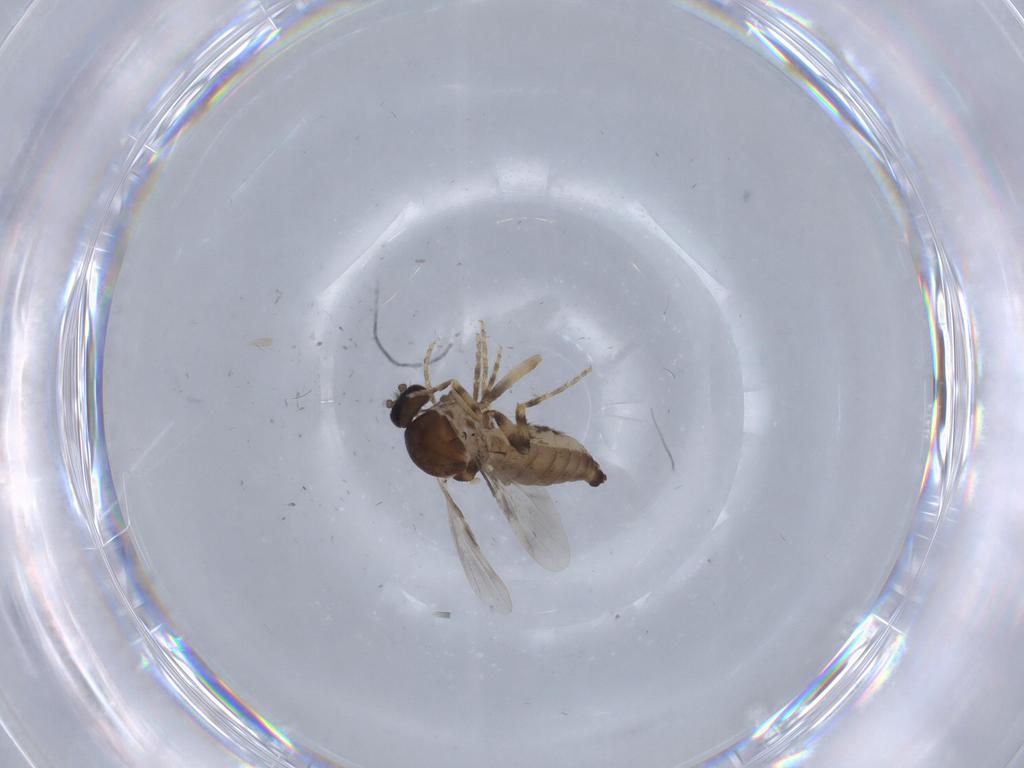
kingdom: Animalia
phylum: Arthropoda
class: Insecta
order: Diptera
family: Ceratopogonidae
